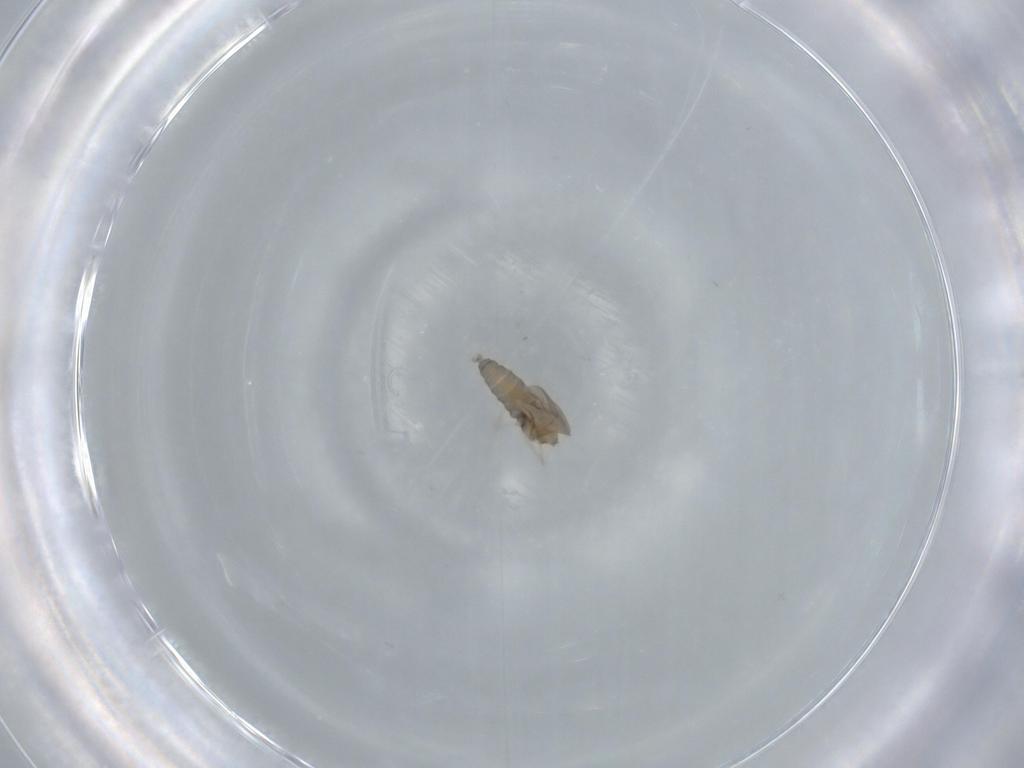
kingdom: Animalia
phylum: Arthropoda
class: Insecta
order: Diptera
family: Cecidomyiidae
